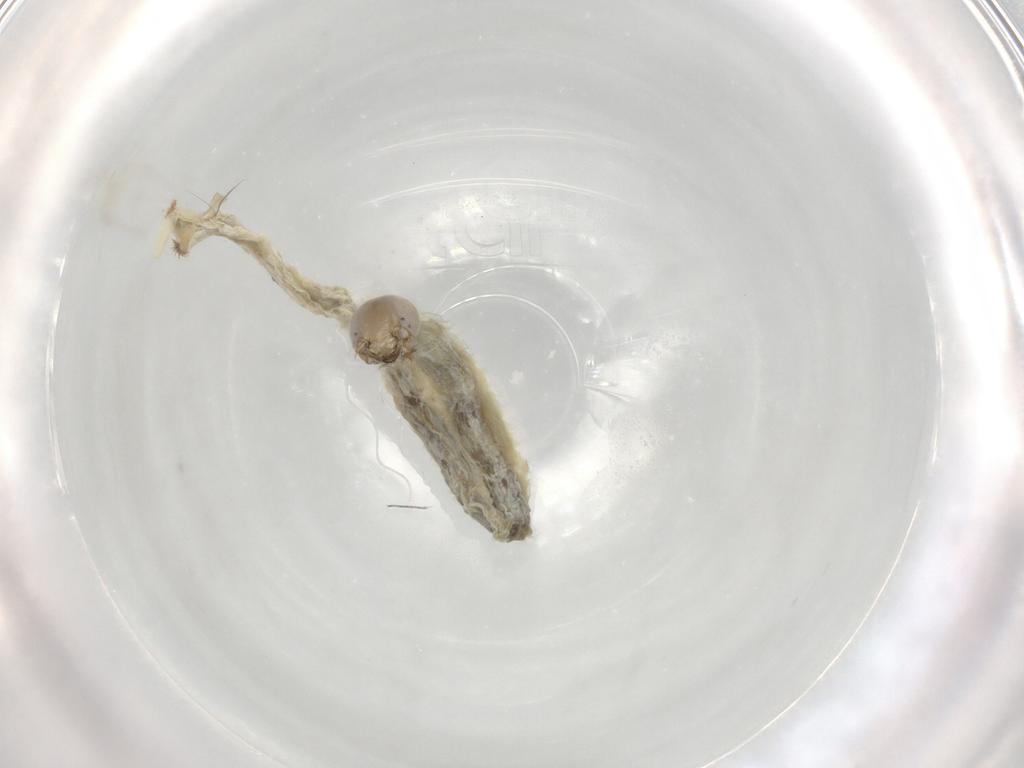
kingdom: Animalia
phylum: Arthropoda
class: Insecta
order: Diptera
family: Chironomidae
